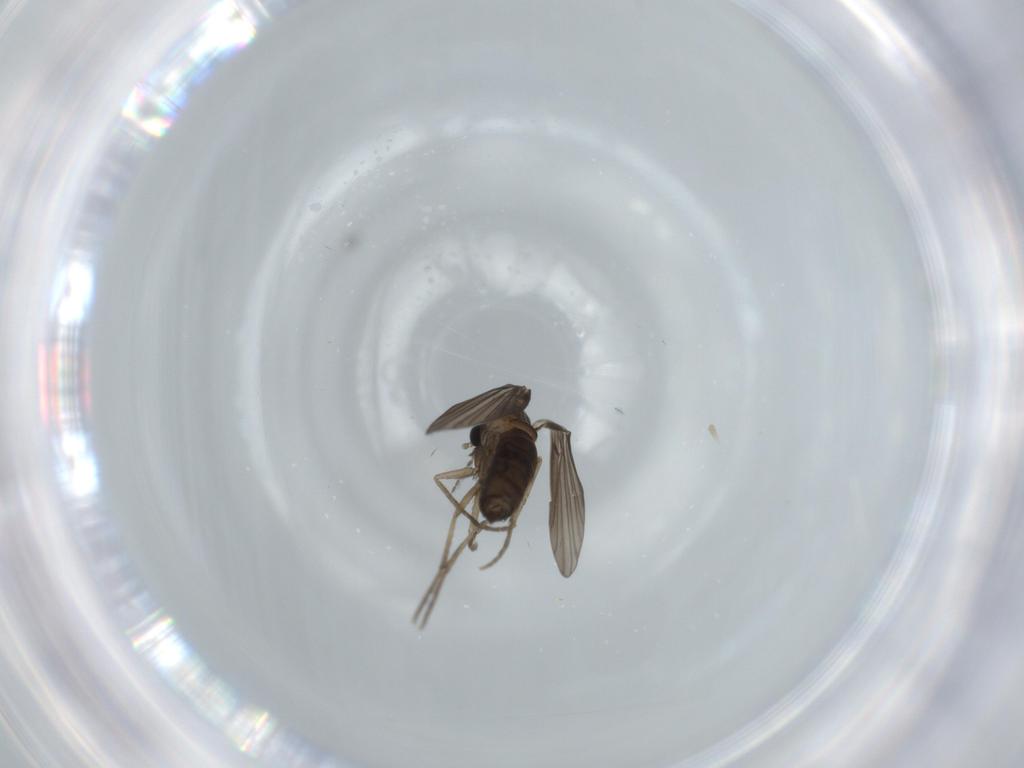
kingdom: Animalia
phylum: Arthropoda
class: Insecta
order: Diptera
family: Psychodidae
